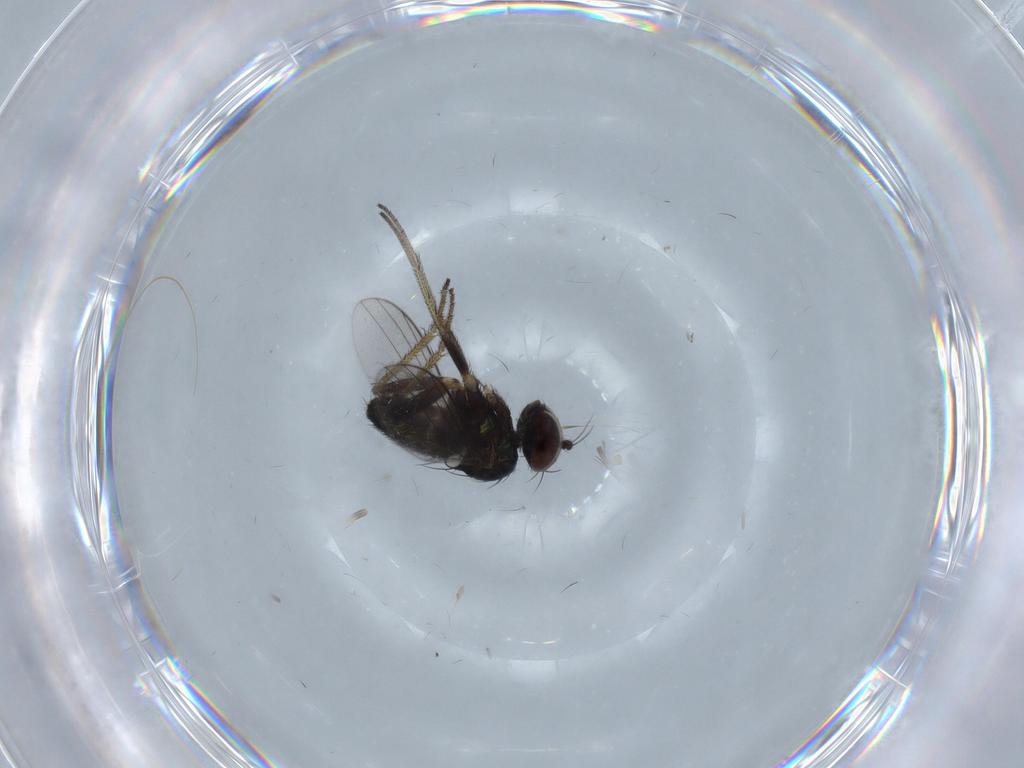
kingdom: Animalia
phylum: Arthropoda
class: Insecta
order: Diptera
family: Dolichopodidae
